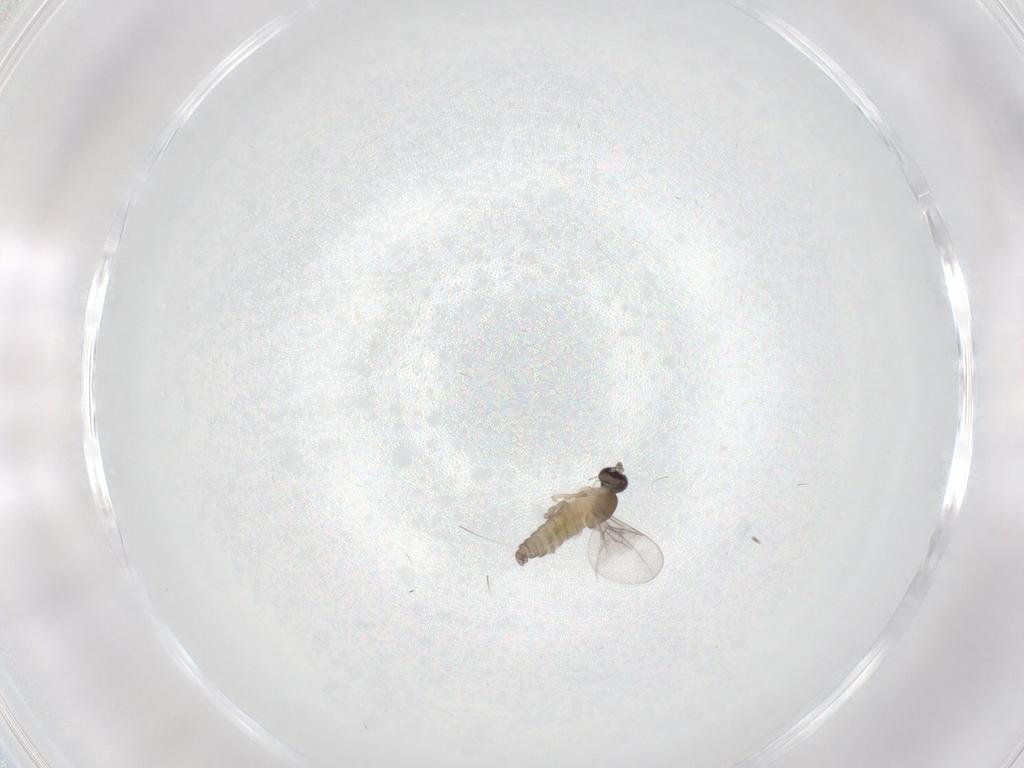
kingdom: Animalia
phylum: Arthropoda
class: Insecta
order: Diptera
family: Cecidomyiidae
